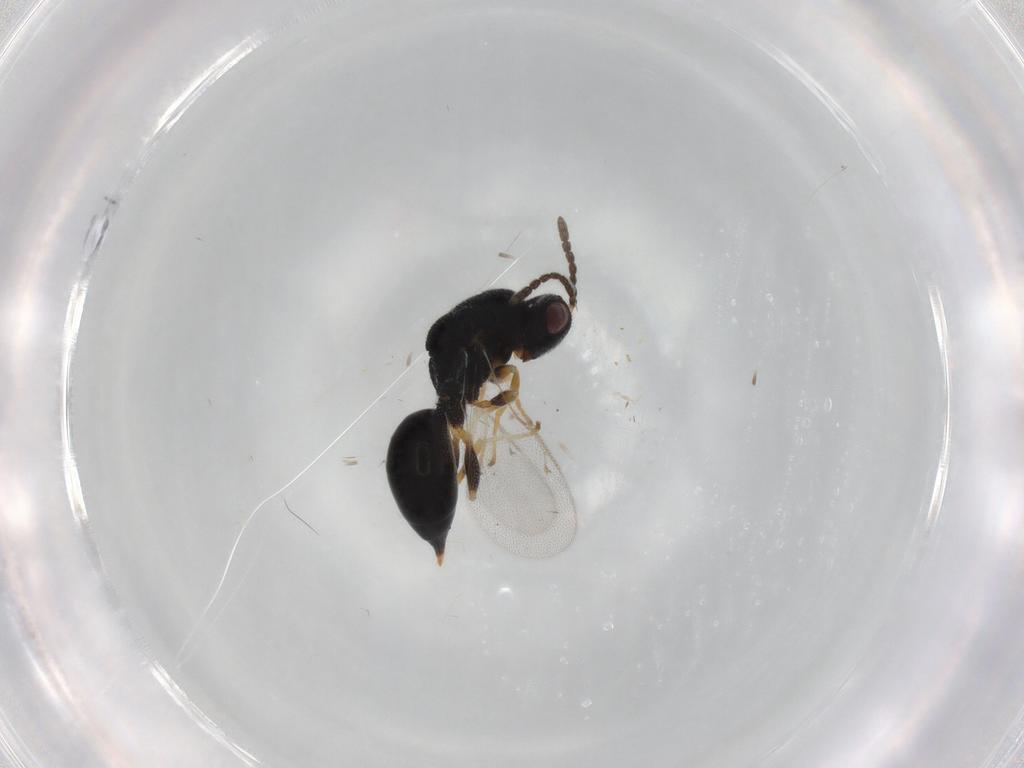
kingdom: Animalia
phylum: Arthropoda
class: Insecta
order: Hymenoptera
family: Eurytomidae
